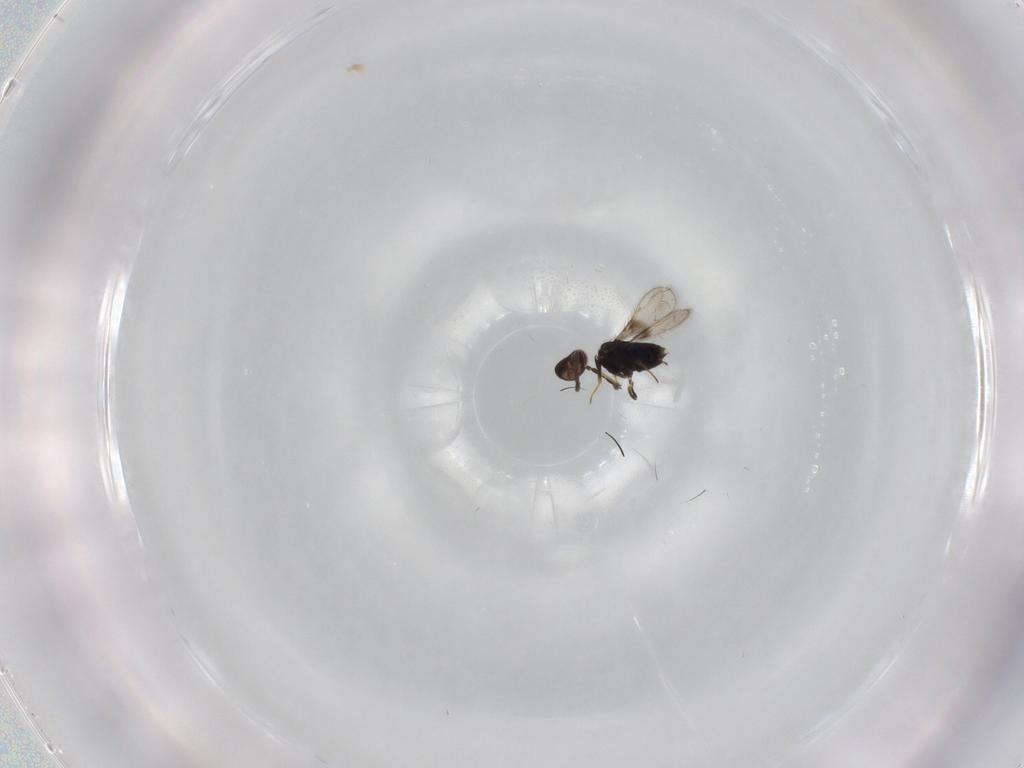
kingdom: Animalia
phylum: Arthropoda
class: Insecta
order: Hymenoptera
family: Azotidae
